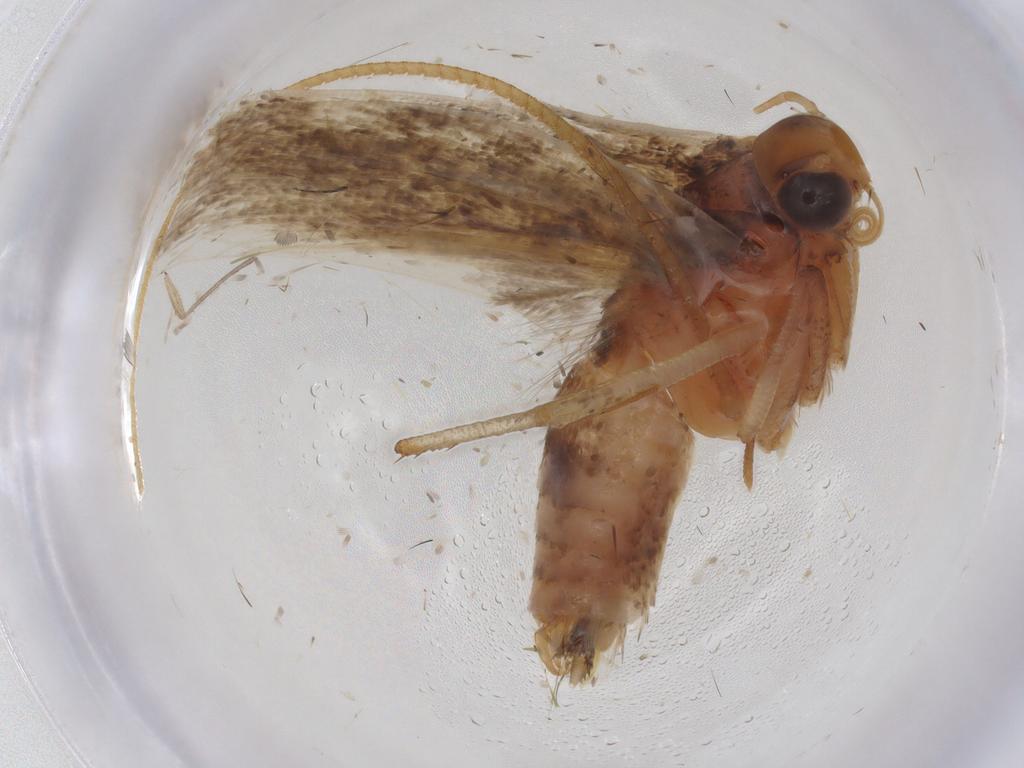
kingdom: Animalia
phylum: Arthropoda
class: Insecta
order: Lepidoptera
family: Gelechiidae
